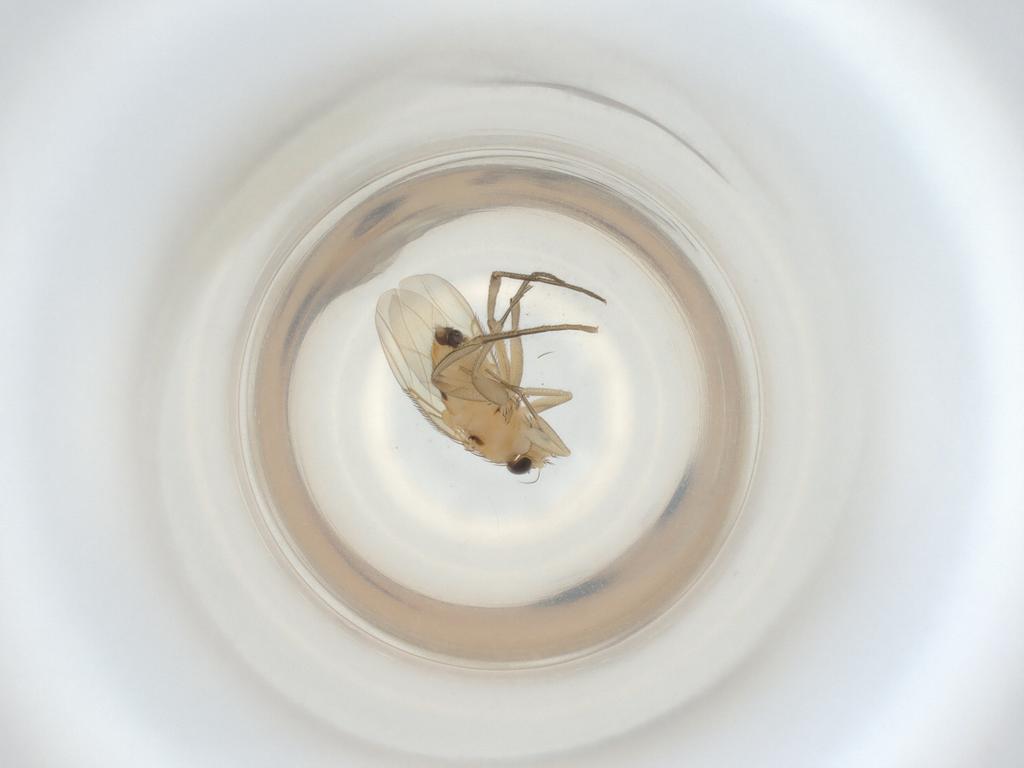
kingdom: Animalia
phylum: Arthropoda
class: Insecta
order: Diptera
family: Phoridae
